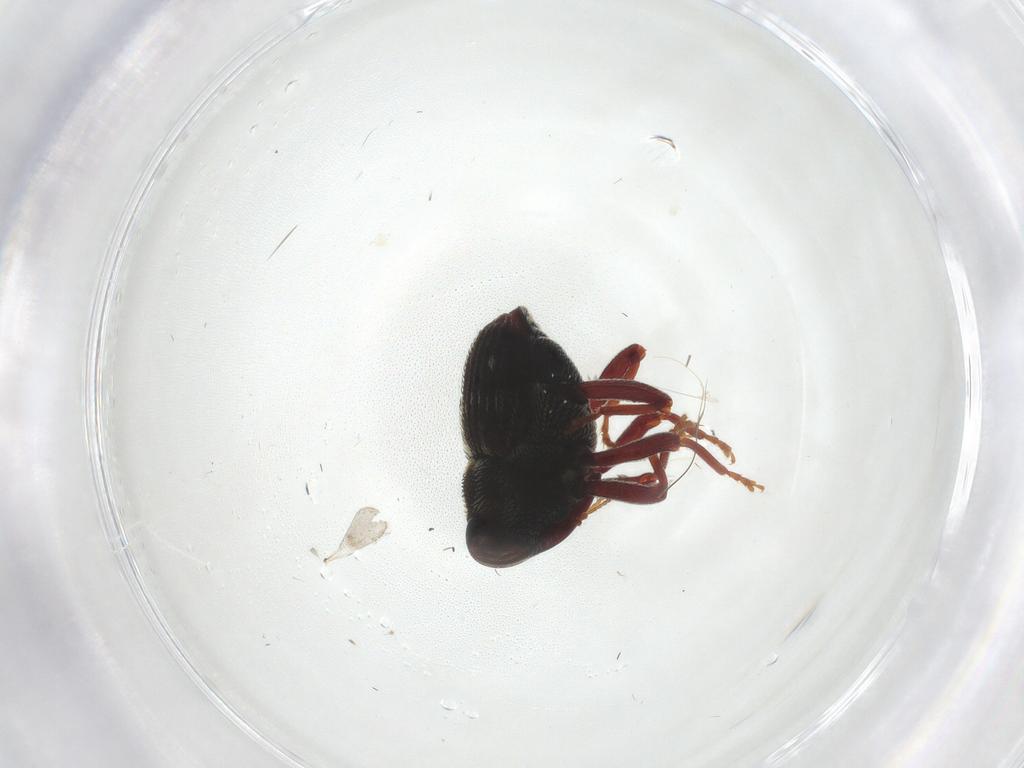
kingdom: Animalia
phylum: Arthropoda
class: Insecta
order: Coleoptera
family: Curculionidae
